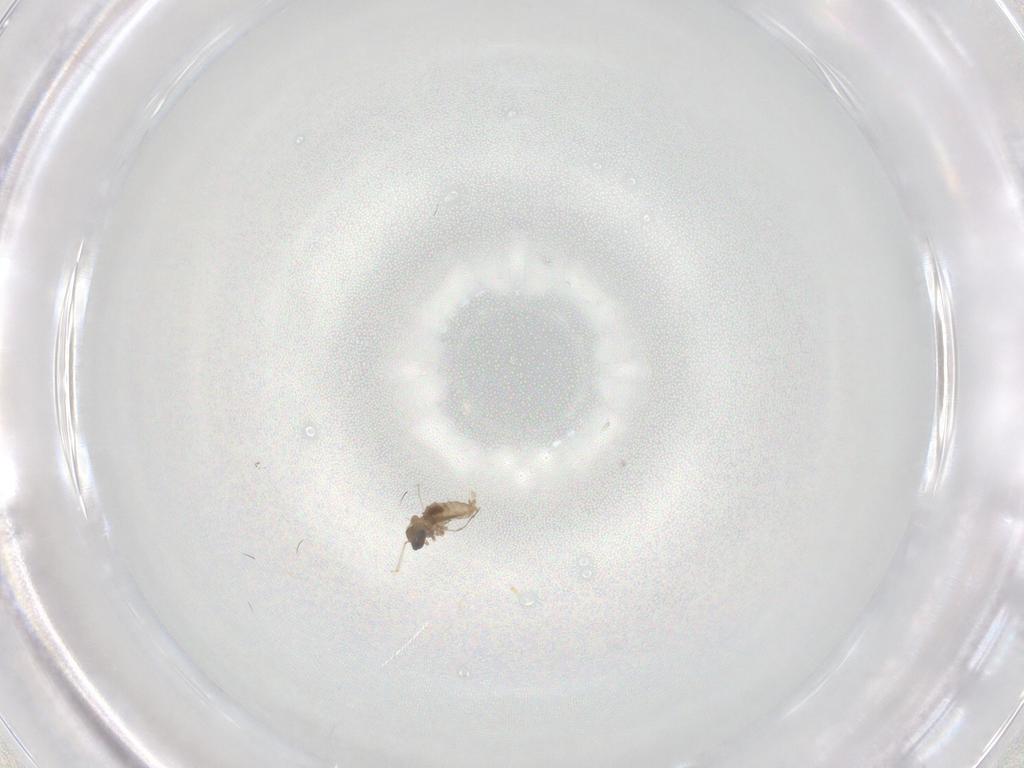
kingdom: Animalia
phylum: Arthropoda
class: Insecta
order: Diptera
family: Cecidomyiidae
